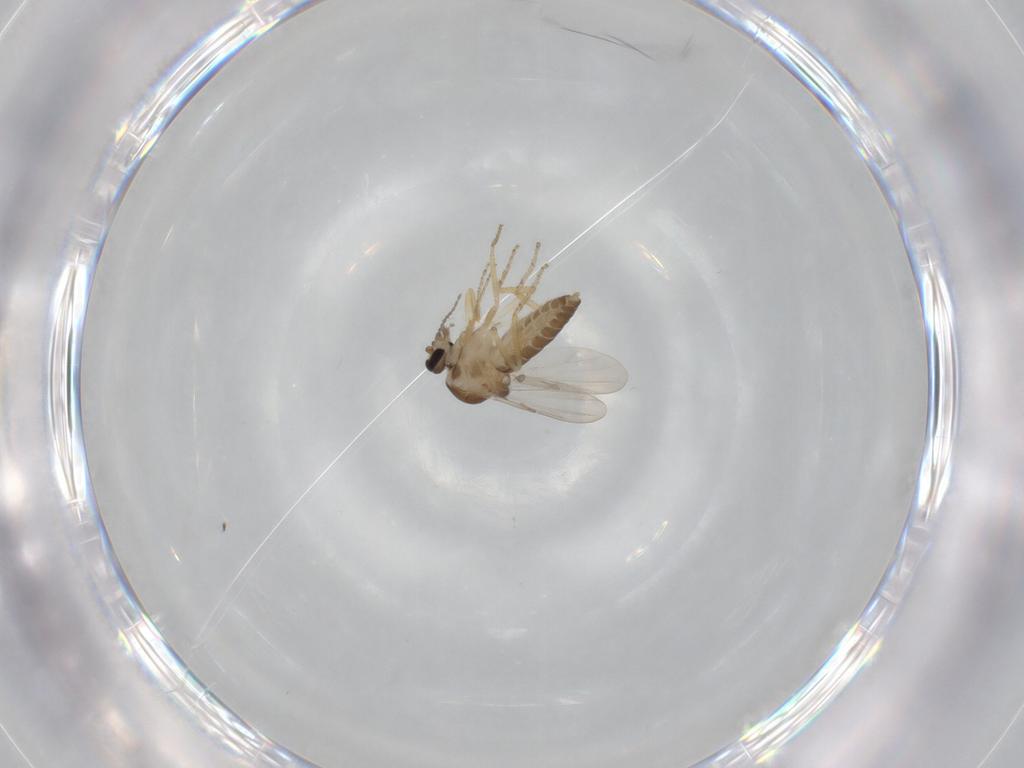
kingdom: Animalia
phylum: Arthropoda
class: Insecta
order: Diptera
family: Ceratopogonidae
